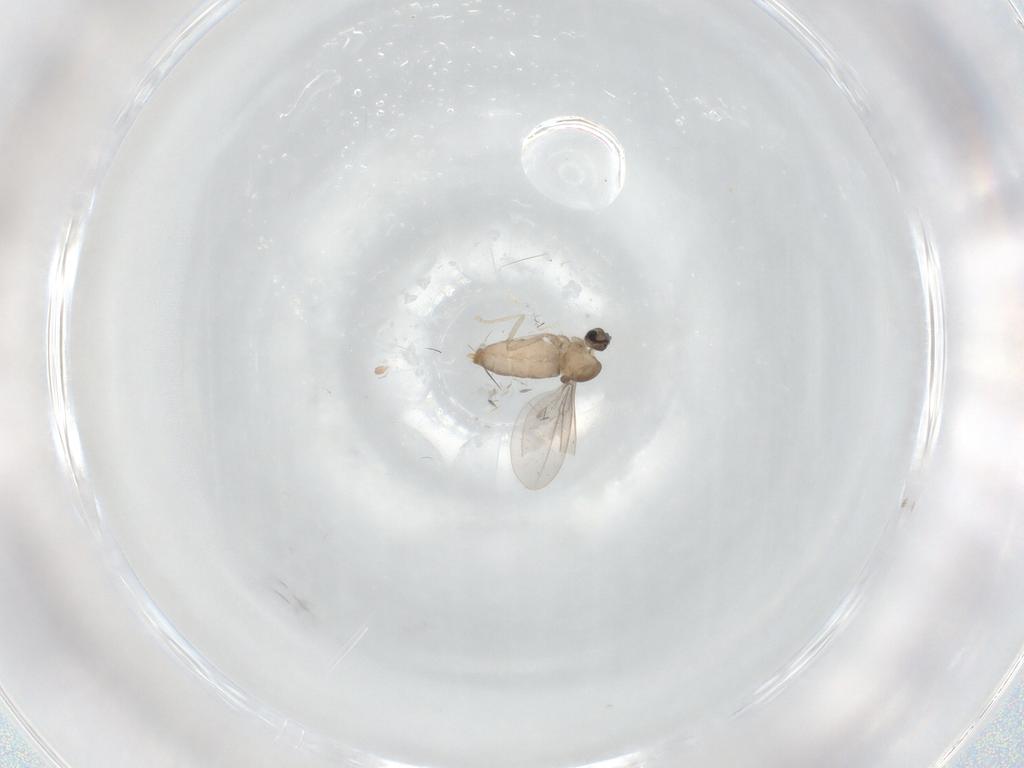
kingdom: Animalia
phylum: Arthropoda
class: Insecta
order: Diptera
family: Cecidomyiidae
